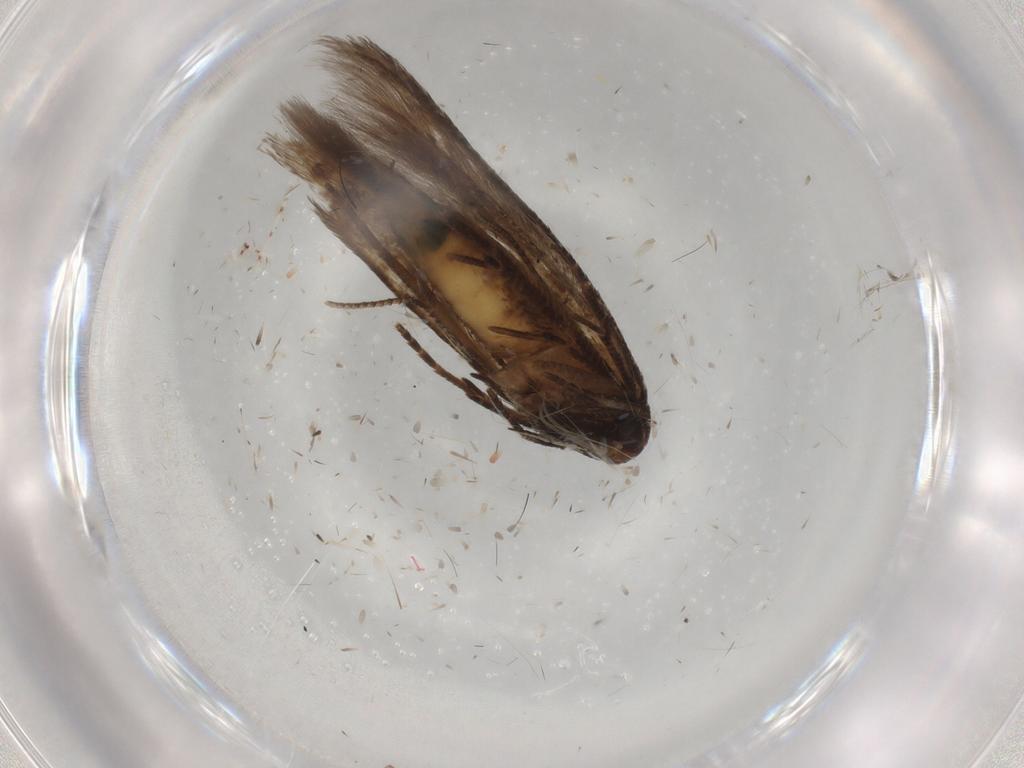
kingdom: Animalia
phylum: Arthropoda
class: Insecta
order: Lepidoptera
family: Cosmopterigidae
